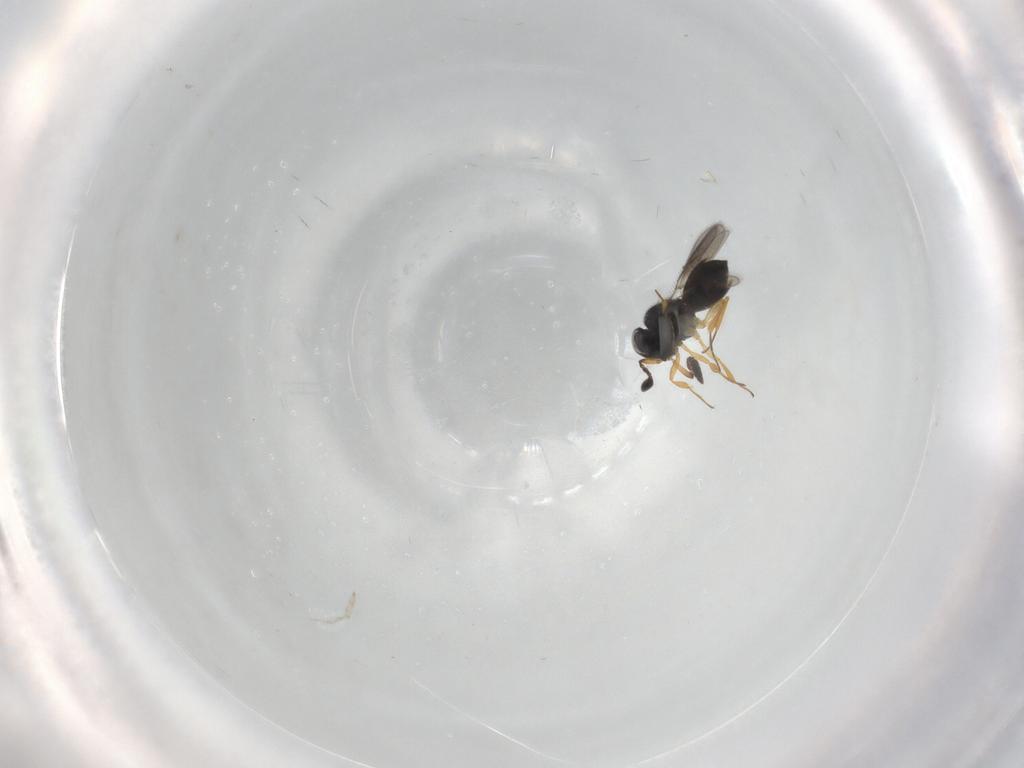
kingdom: Animalia
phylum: Arthropoda
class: Insecta
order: Hymenoptera
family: Scelionidae
